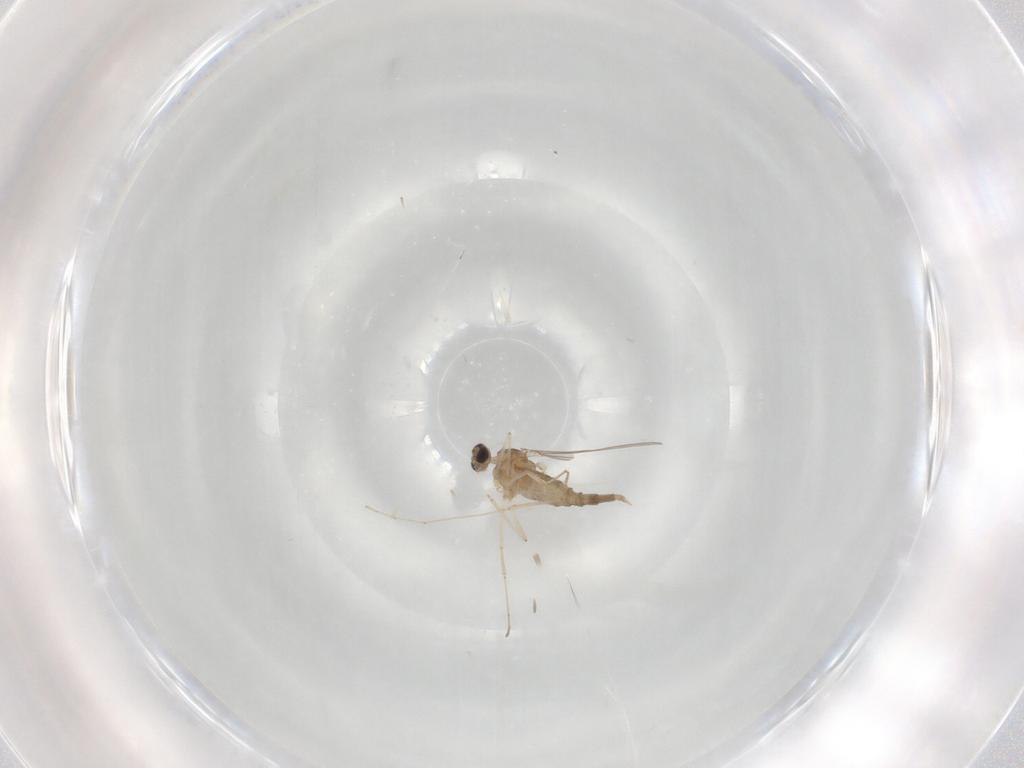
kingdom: Animalia
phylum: Arthropoda
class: Insecta
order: Diptera
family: Cecidomyiidae
